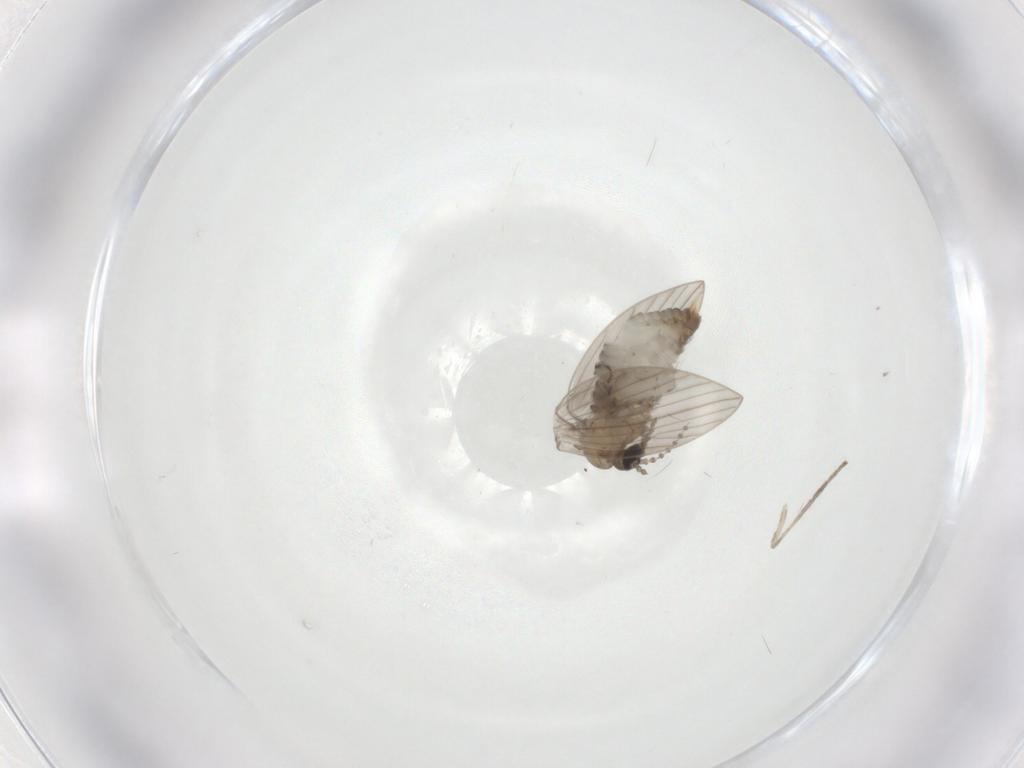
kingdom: Animalia
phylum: Arthropoda
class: Insecta
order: Diptera
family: Psychodidae
